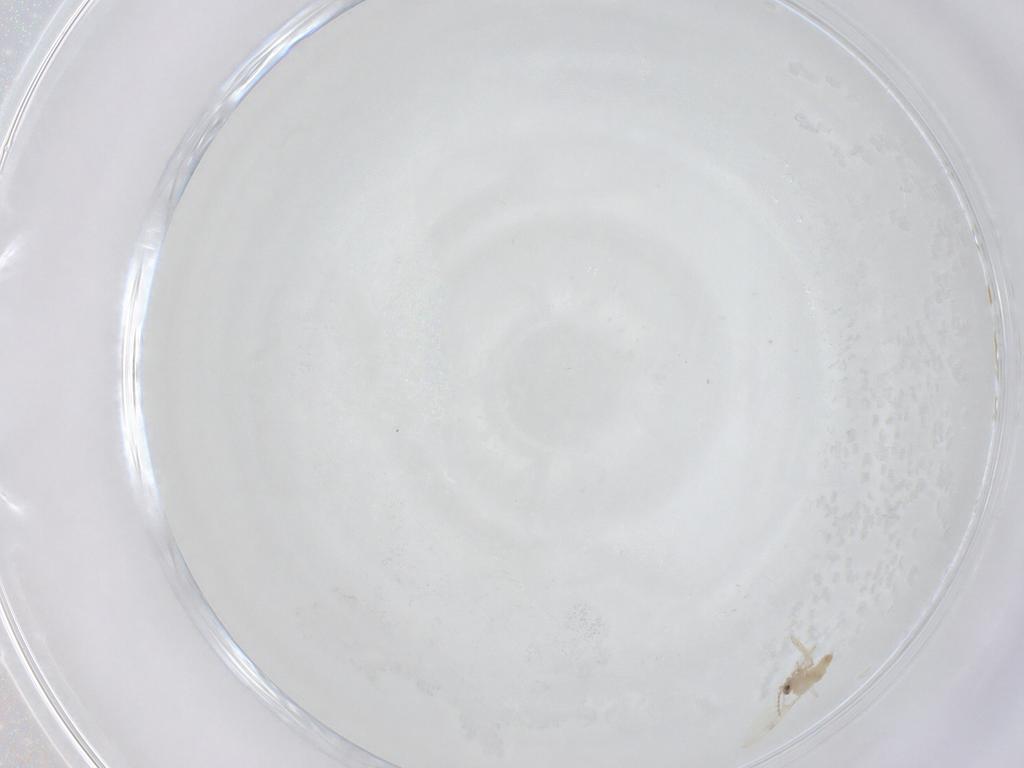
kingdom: Animalia
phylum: Arthropoda
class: Insecta
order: Diptera
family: Cecidomyiidae
